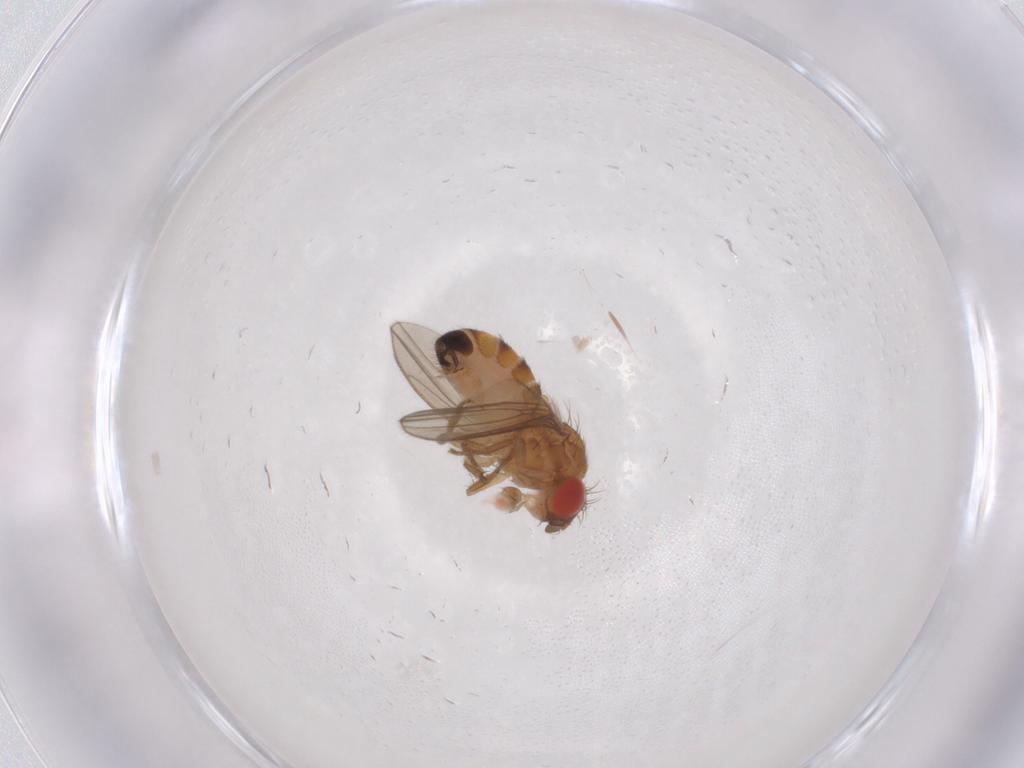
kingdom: Animalia
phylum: Arthropoda
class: Insecta
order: Diptera
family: Drosophilidae
